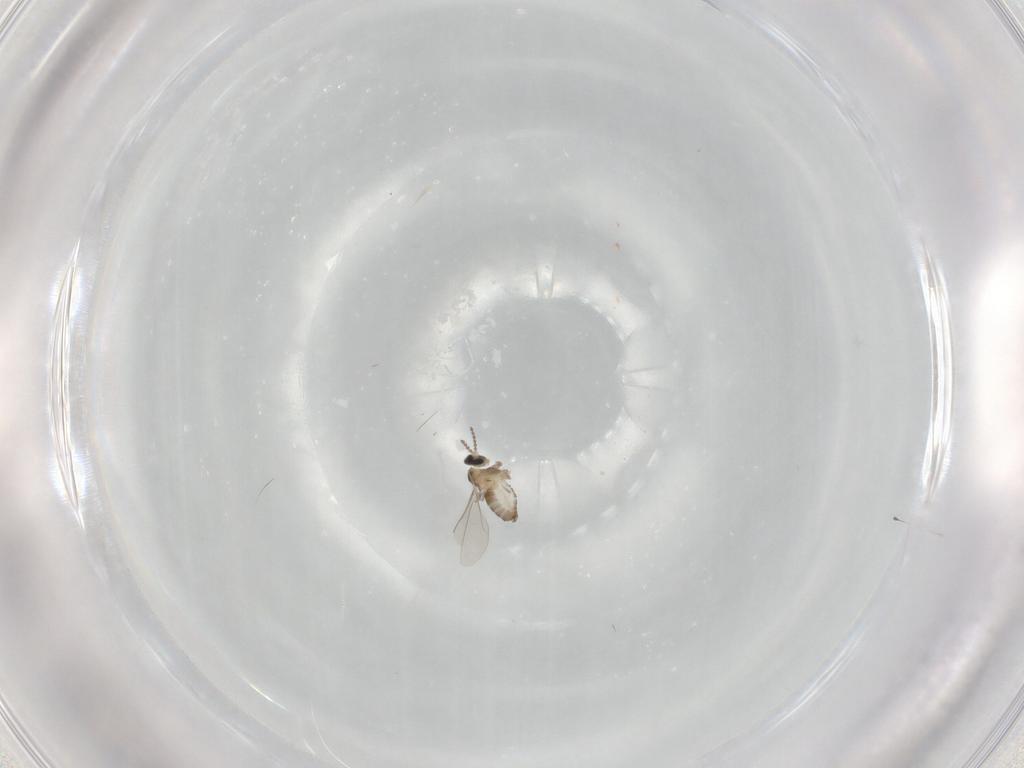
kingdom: Animalia
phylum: Arthropoda
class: Insecta
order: Diptera
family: Cecidomyiidae
